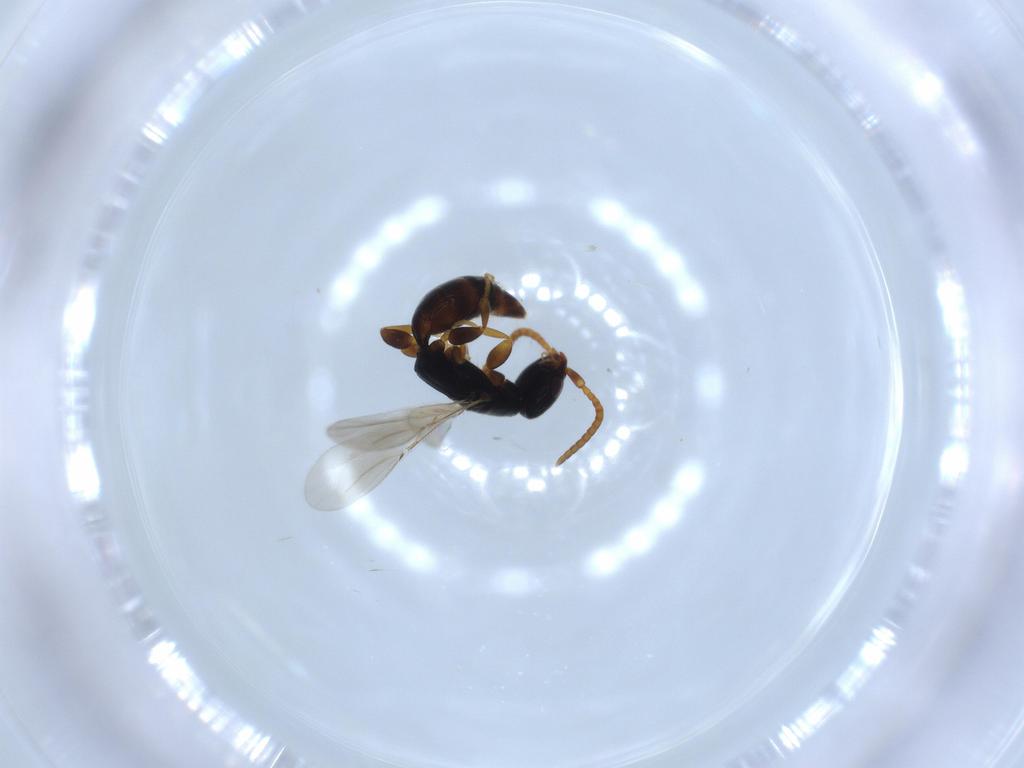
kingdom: Animalia
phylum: Arthropoda
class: Insecta
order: Hymenoptera
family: Bethylidae
